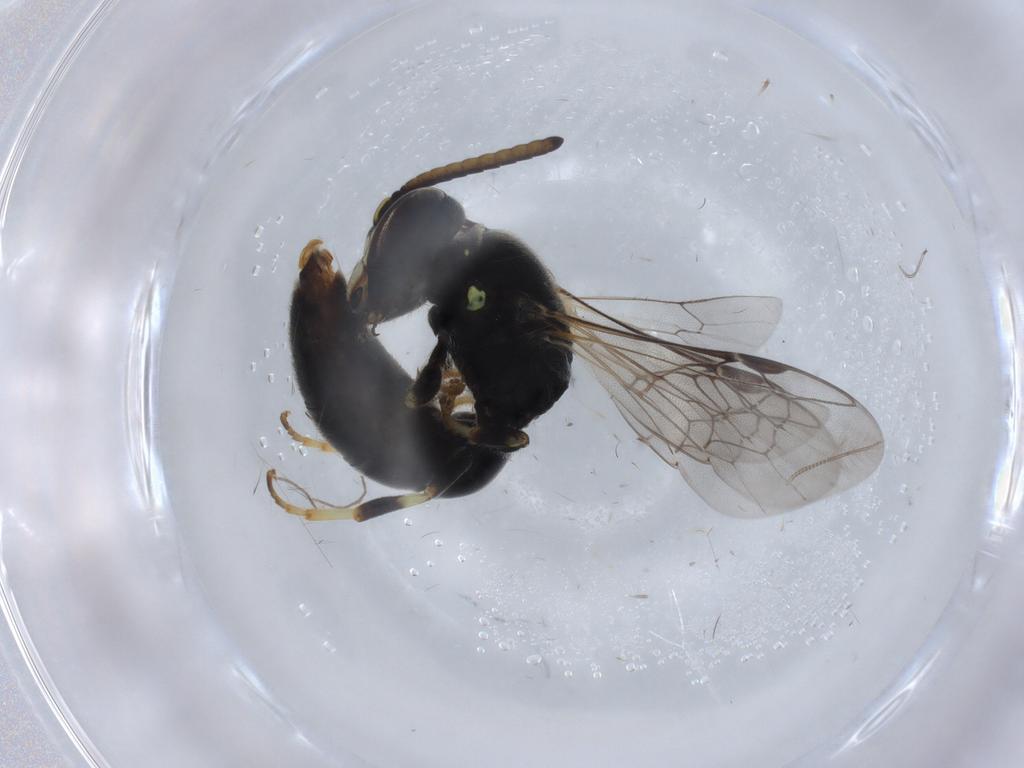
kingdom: Animalia
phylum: Arthropoda
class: Insecta
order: Hymenoptera
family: Colletidae
